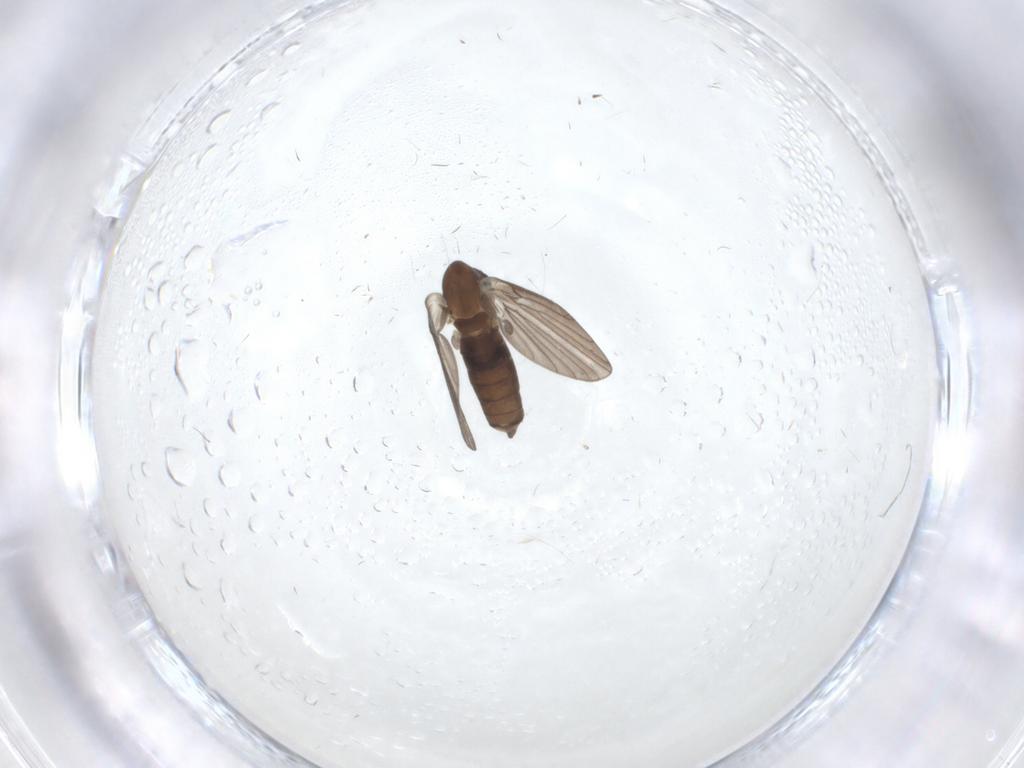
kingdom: Animalia
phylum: Arthropoda
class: Insecta
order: Diptera
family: Psychodidae
